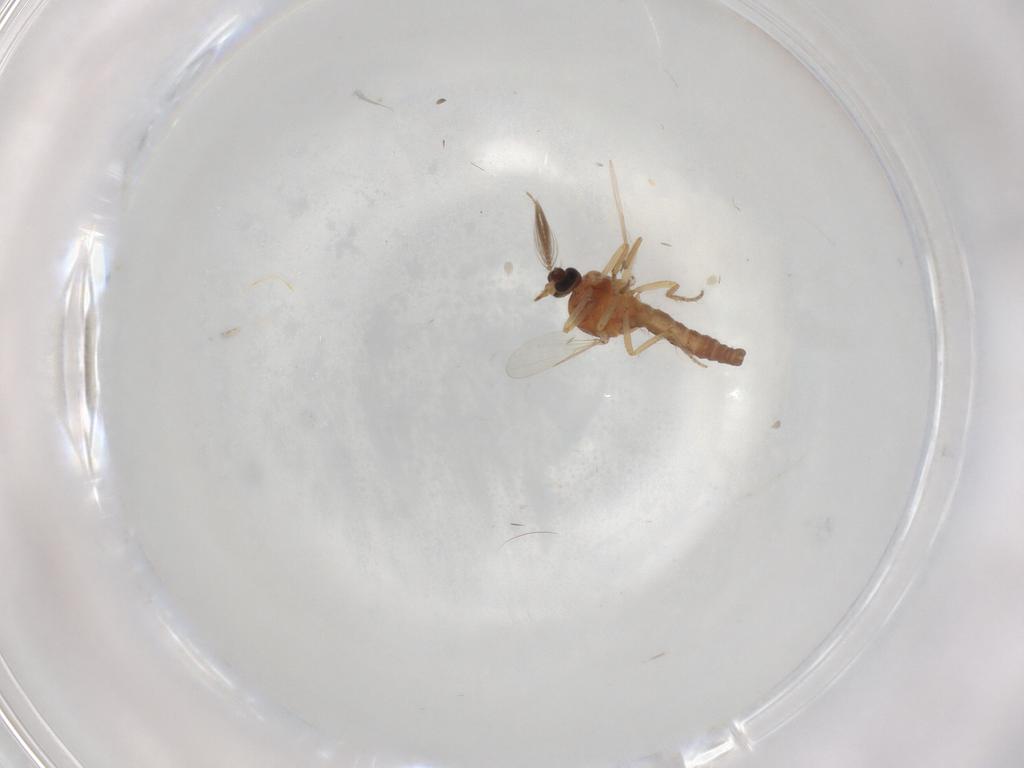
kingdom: Animalia
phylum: Arthropoda
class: Insecta
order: Diptera
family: Ceratopogonidae
